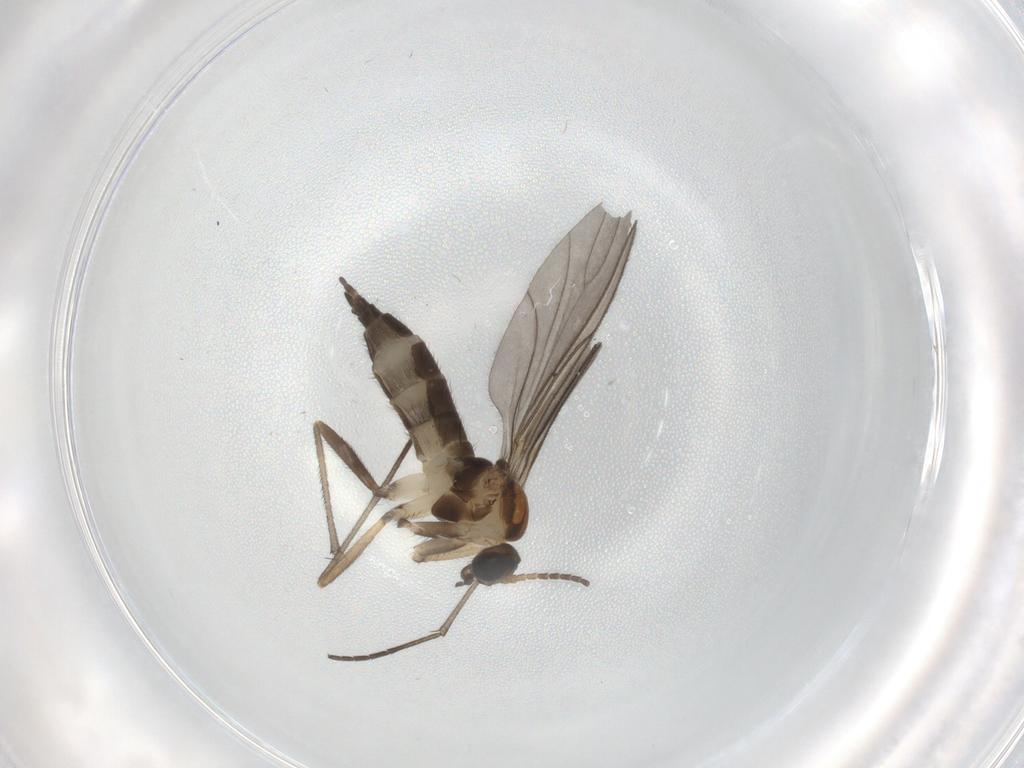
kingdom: Animalia
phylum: Arthropoda
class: Insecta
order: Diptera
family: Sciaridae
